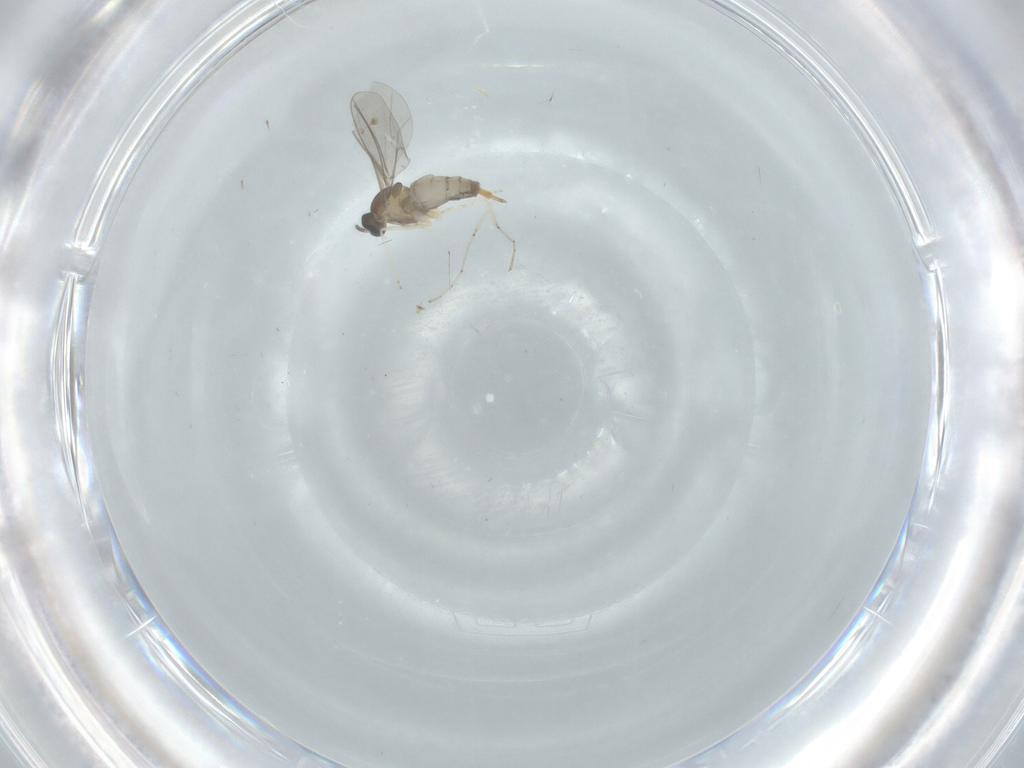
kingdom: Animalia
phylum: Arthropoda
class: Insecta
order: Diptera
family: Cecidomyiidae
